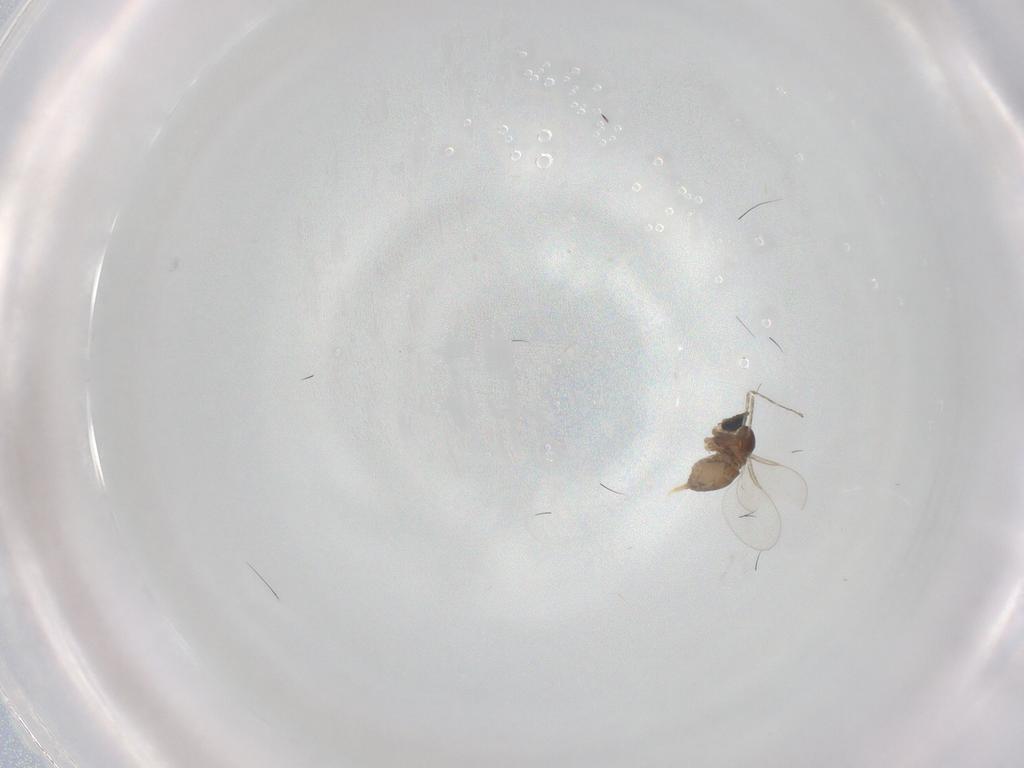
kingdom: Animalia
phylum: Arthropoda
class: Insecta
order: Diptera
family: Cecidomyiidae
